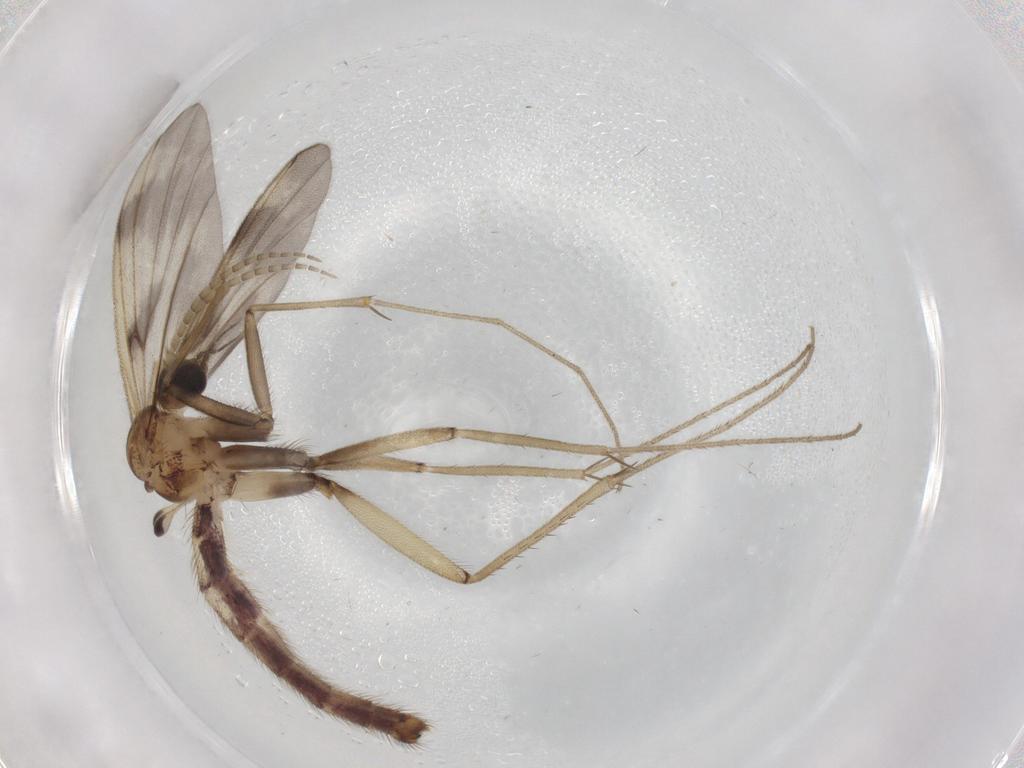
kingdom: Animalia
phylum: Arthropoda
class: Insecta
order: Diptera
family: Mycetophilidae
